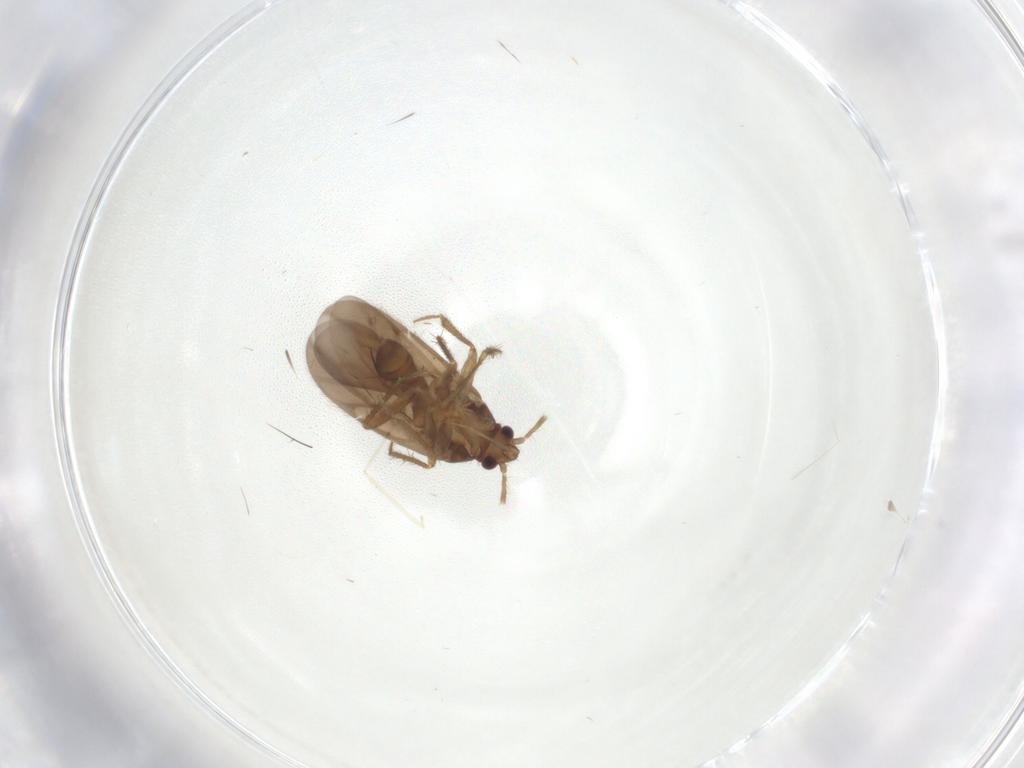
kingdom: Animalia
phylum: Arthropoda
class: Insecta
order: Hemiptera
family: Ceratocombidae
